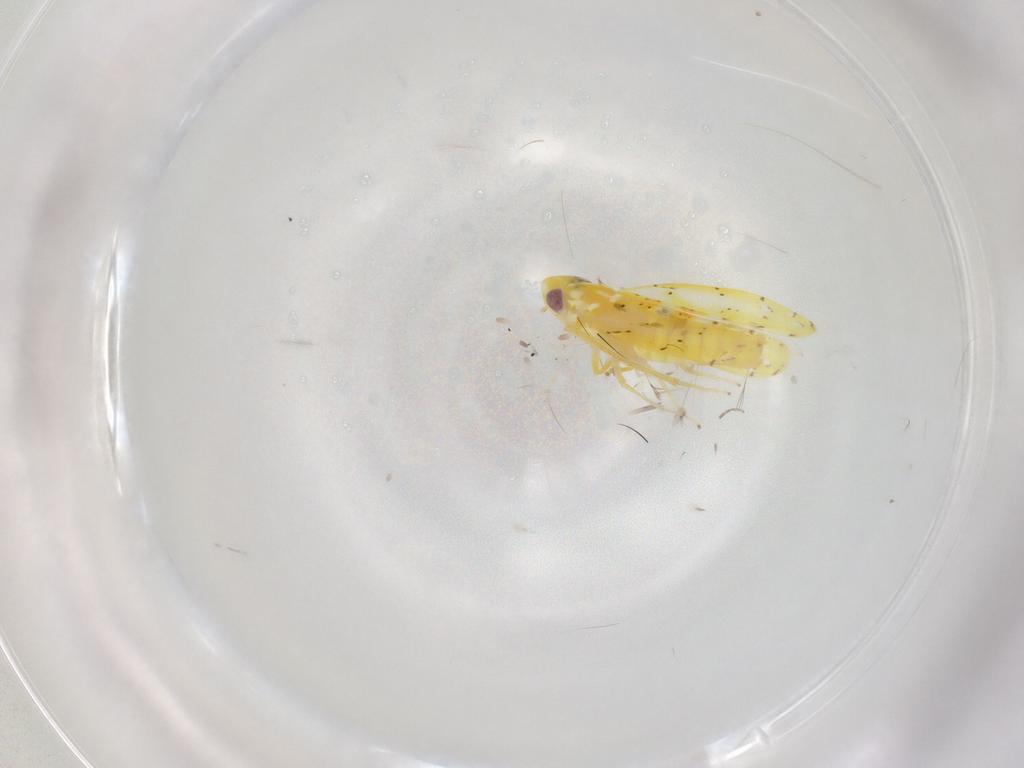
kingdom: Animalia
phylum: Arthropoda
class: Insecta
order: Hemiptera
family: Cicadellidae
